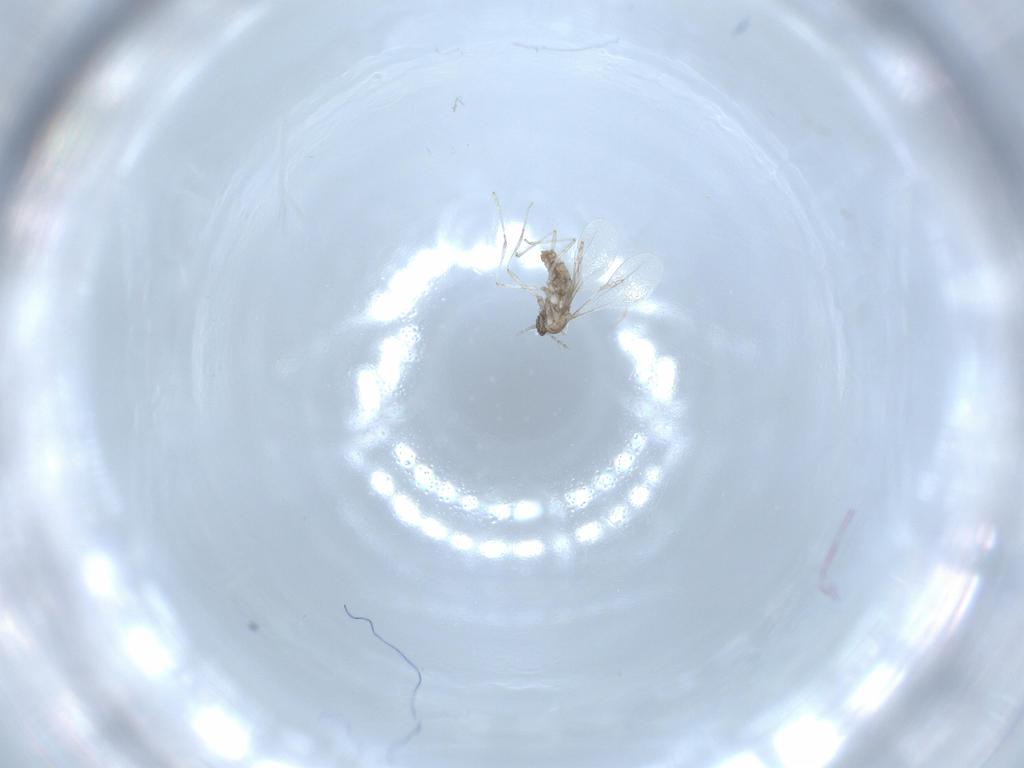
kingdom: Animalia
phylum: Arthropoda
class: Insecta
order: Diptera
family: Cecidomyiidae
